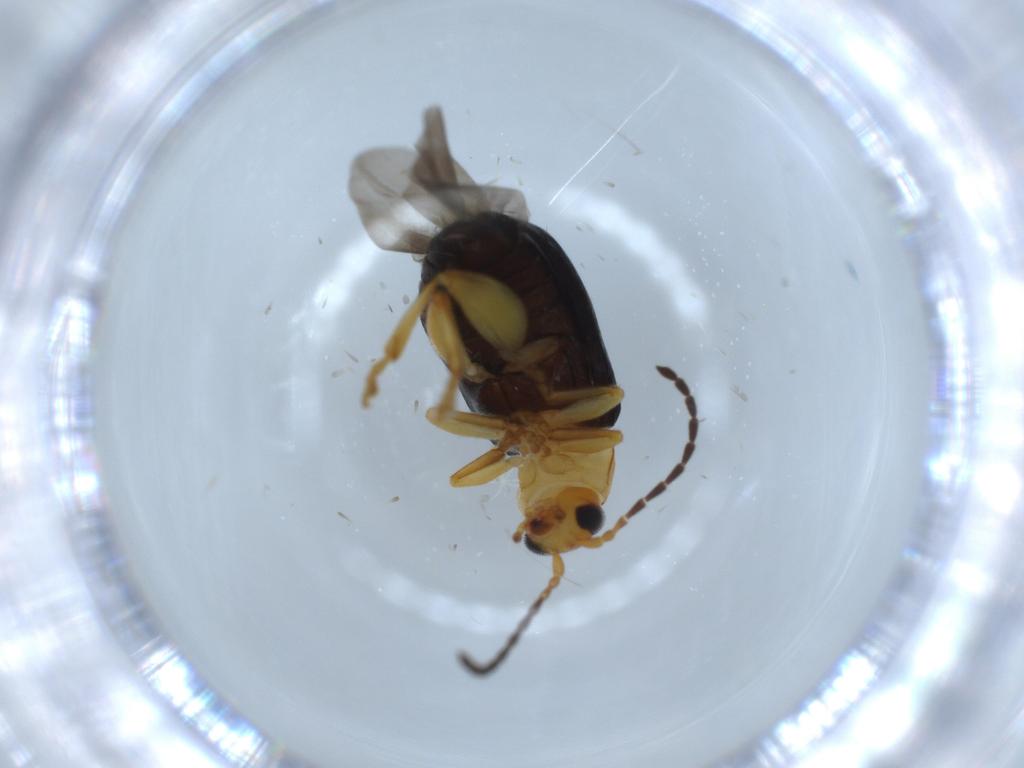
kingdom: Animalia
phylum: Arthropoda
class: Insecta
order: Coleoptera
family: Chrysomelidae
